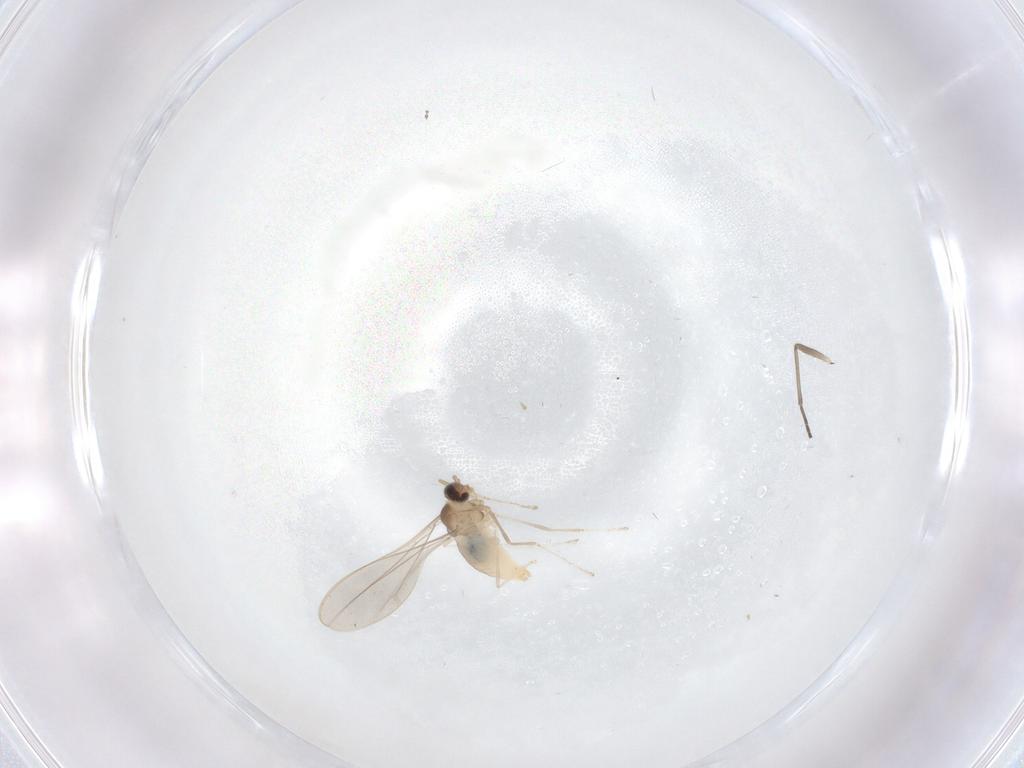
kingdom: Animalia
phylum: Arthropoda
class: Insecta
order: Diptera
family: Cecidomyiidae
